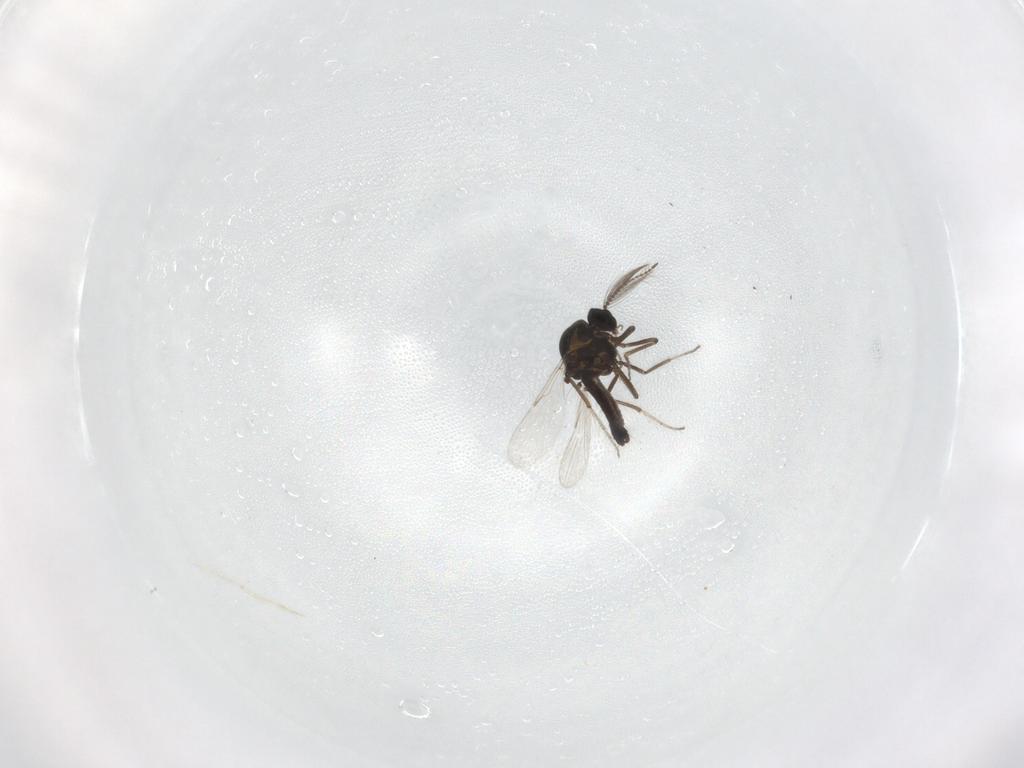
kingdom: Animalia
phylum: Arthropoda
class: Insecta
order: Diptera
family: Ceratopogonidae
